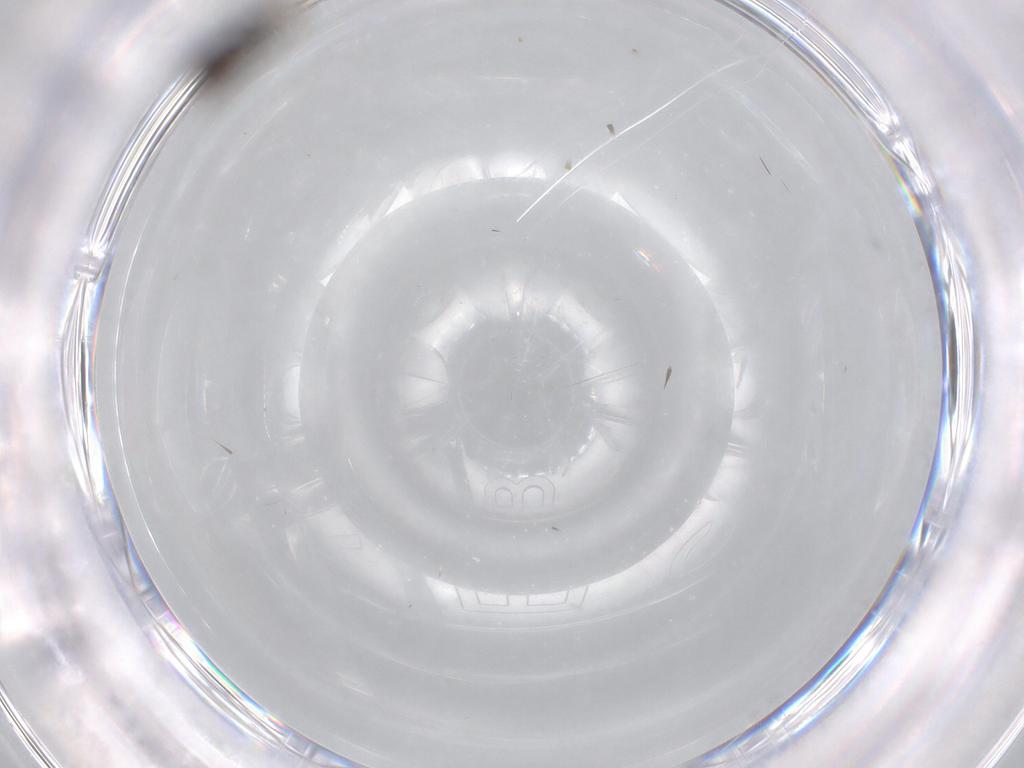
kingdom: Animalia
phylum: Arthropoda
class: Insecta
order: Diptera
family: Sciaridae
